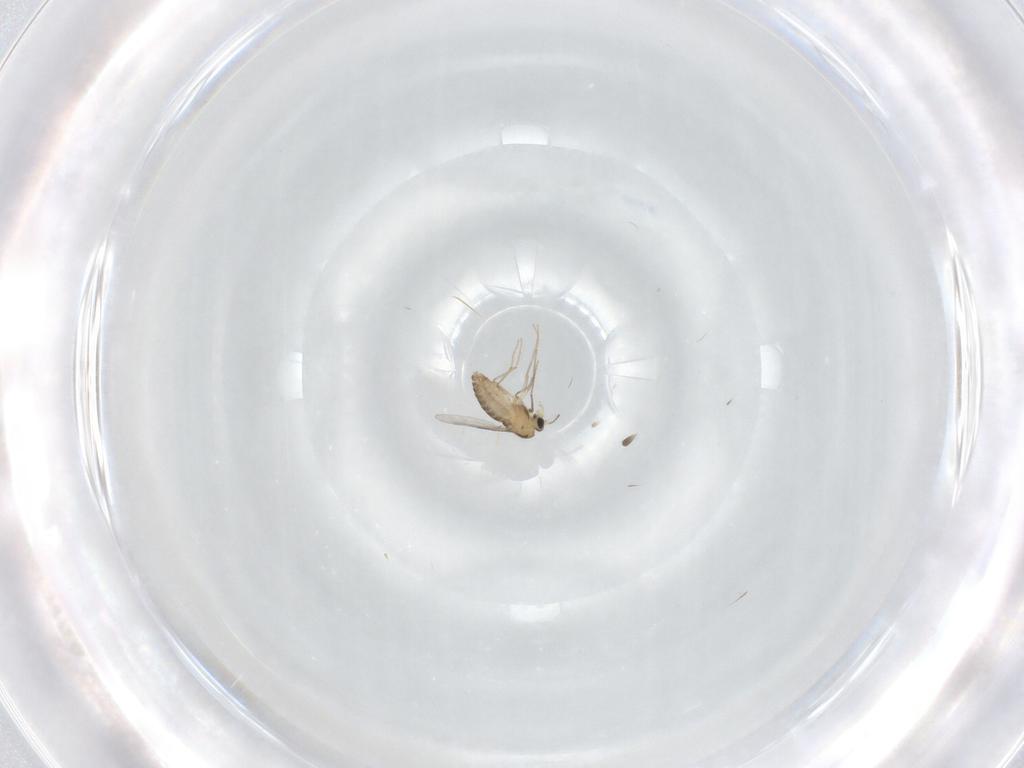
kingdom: Animalia
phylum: Arthropoda
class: Insecta
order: Diptera
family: Chironomidae
